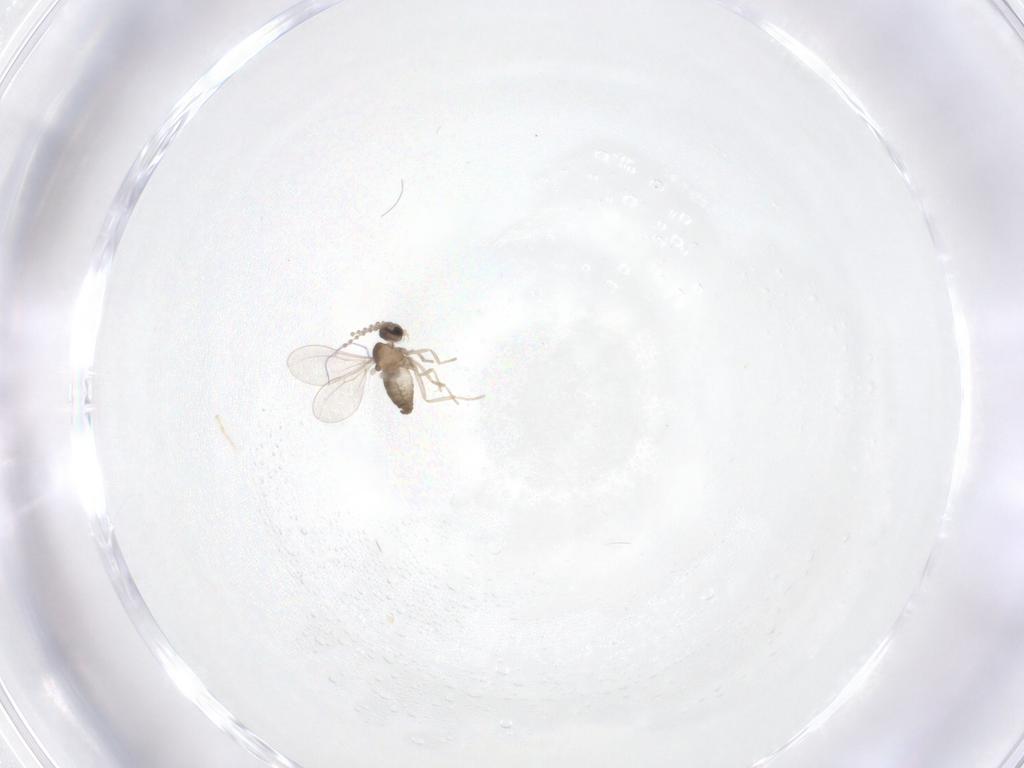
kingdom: Animalia
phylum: Arthropoda
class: Insecta
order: Diptera
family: Cecidomyiidae
